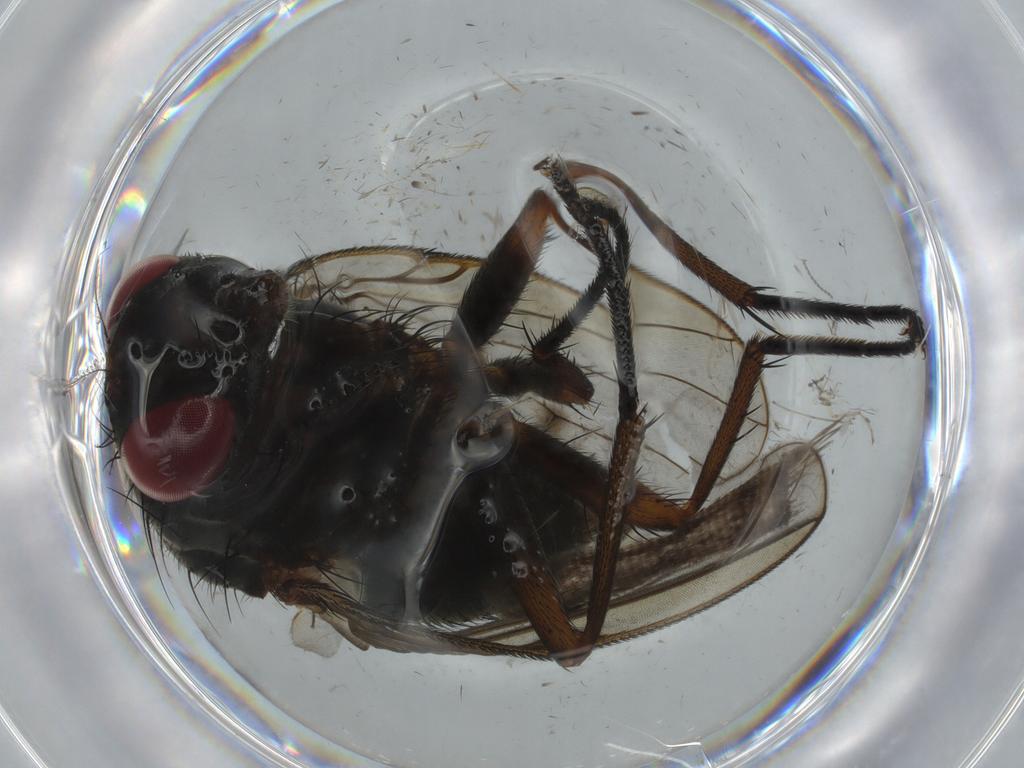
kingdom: Animalia
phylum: Arthropoda
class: Insecta
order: Diptera
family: Muscidae
